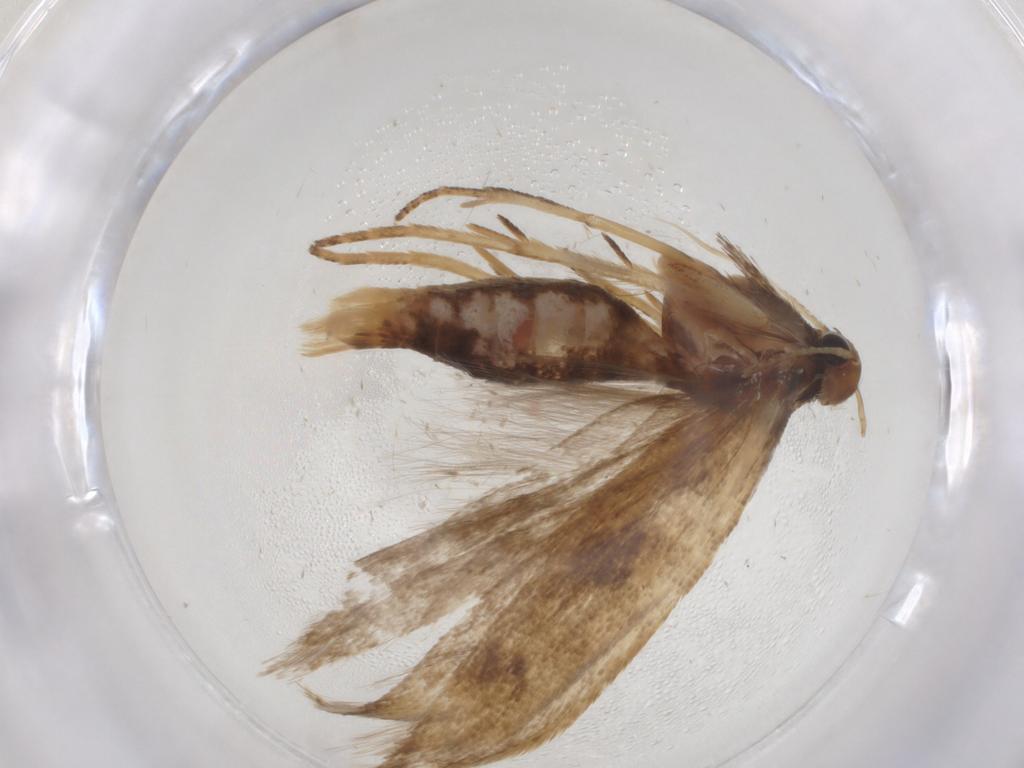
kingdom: Animalia
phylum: Arthropoda
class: Insecta
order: Lepidoptera
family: Gelechiidae
